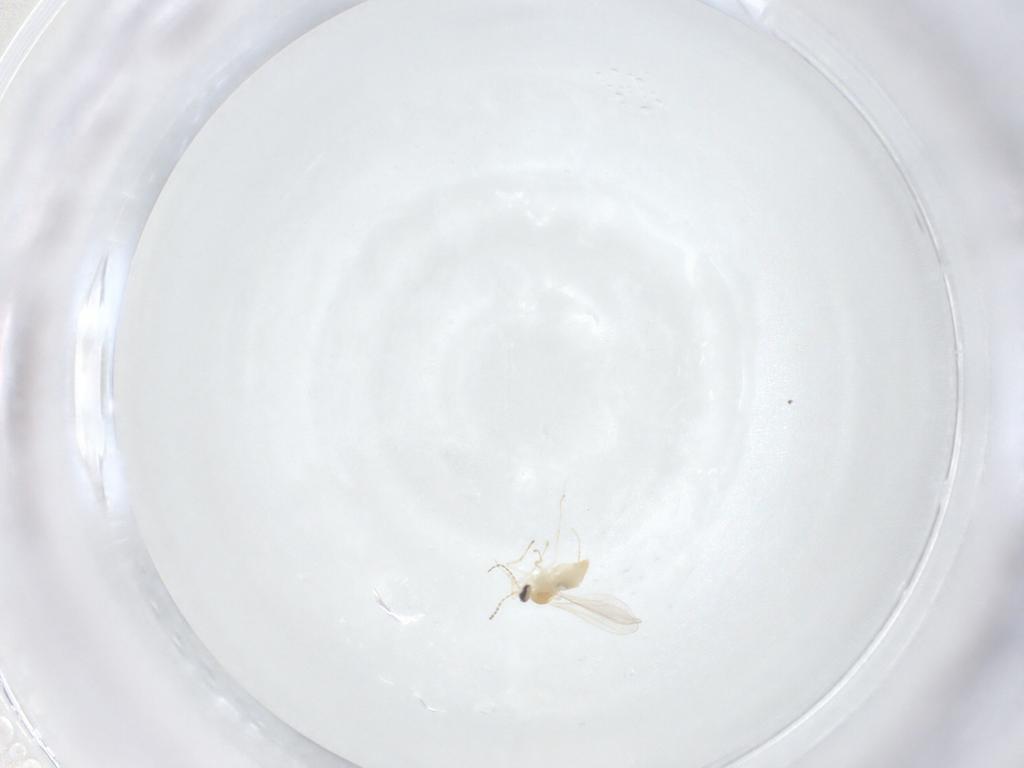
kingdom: Animalia
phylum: Arthropoda
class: Insecta
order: Diptera
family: Cecidomyiidae
